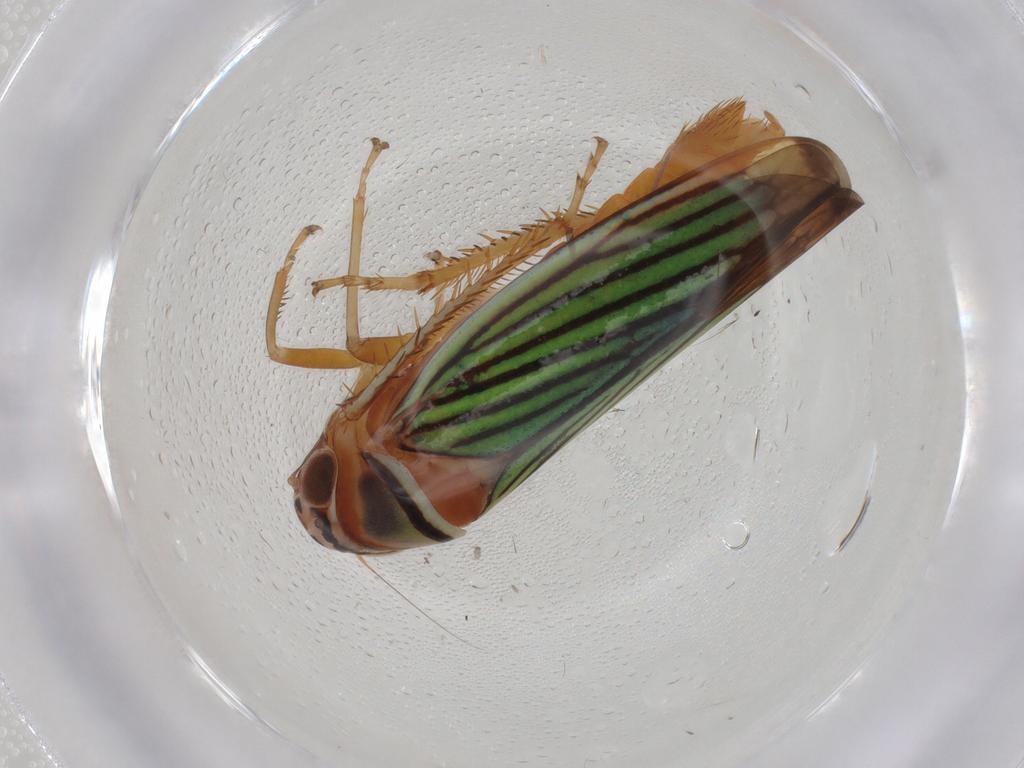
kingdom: Animalia
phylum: Arthropoda
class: Insecta
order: Hemiptera
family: Cicadellidae
